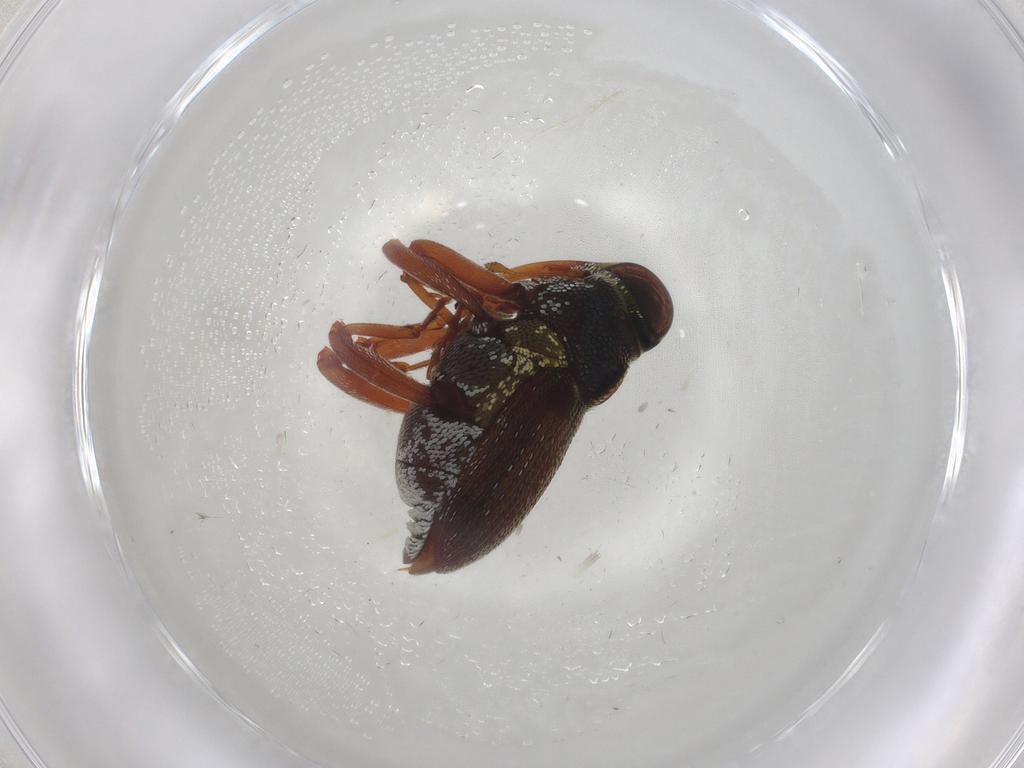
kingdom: Animalia
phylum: Arthropoda
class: Insecta
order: Coleoptera
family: Curculionidae
